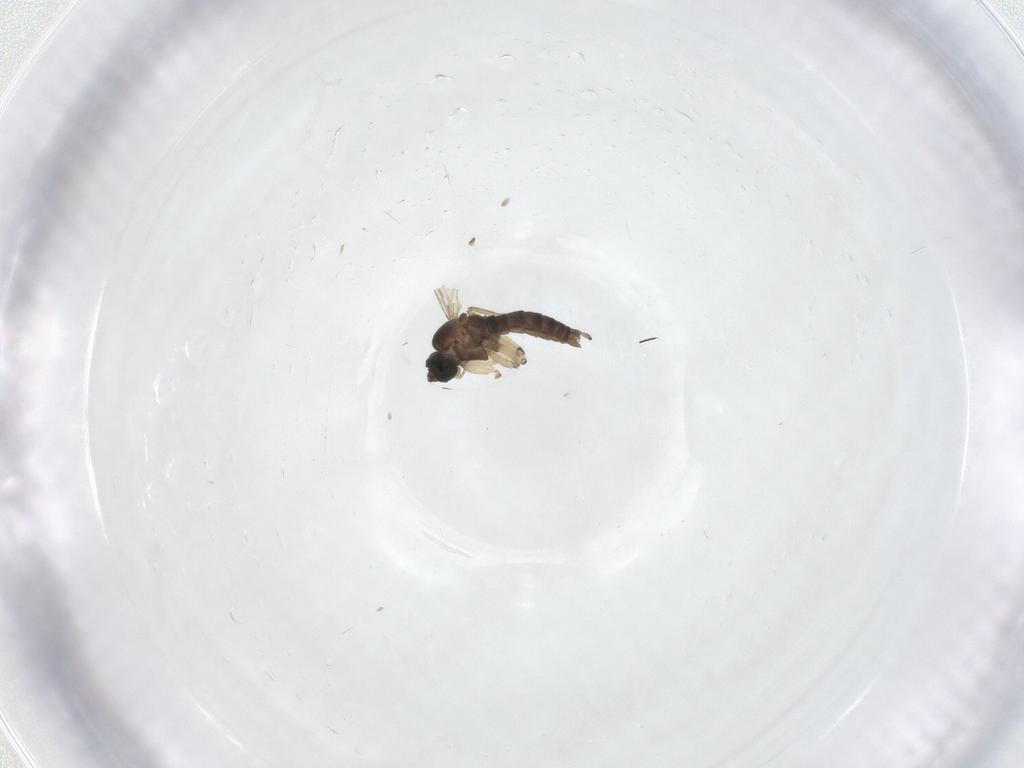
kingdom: Animalia
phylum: Arthropoda
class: Insecta
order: Diptera
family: Sciaridae
